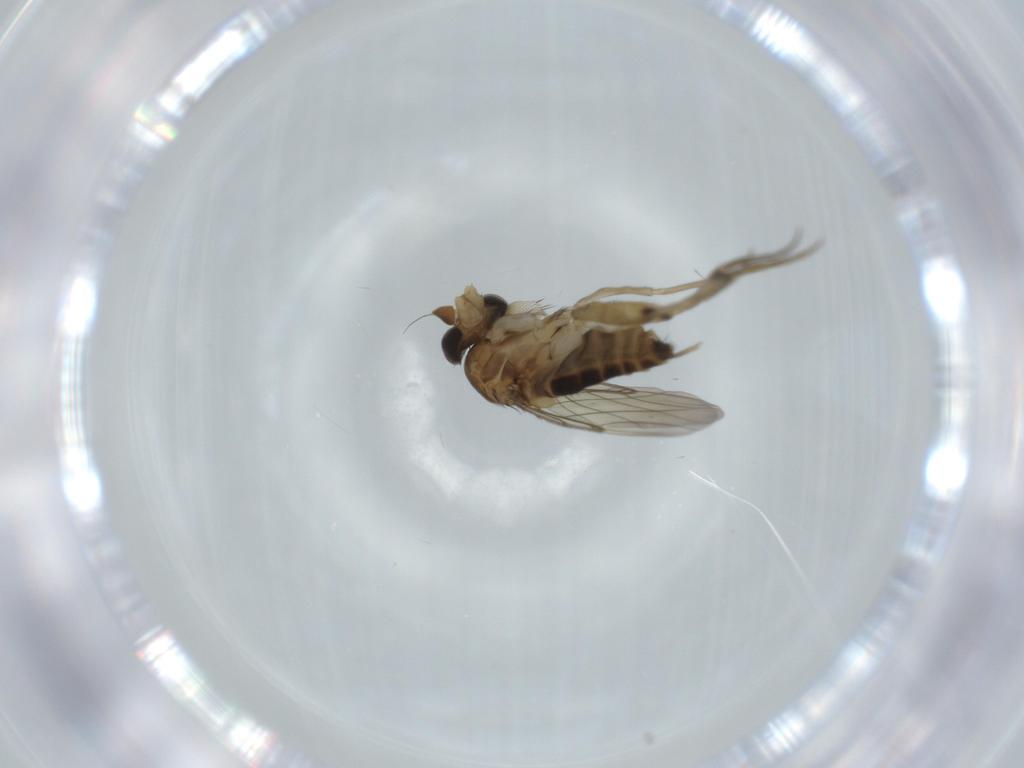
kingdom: Animalia
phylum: Arthropoda
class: Insecta
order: Diptera
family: Phoridae
